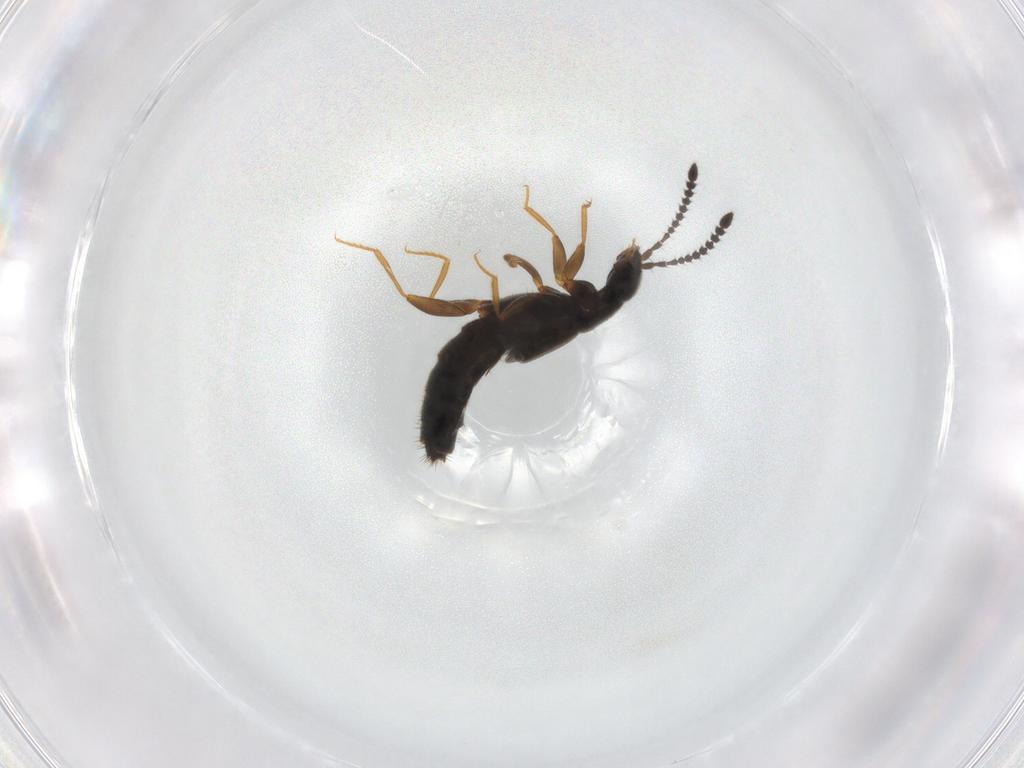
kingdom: Animalia
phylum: Arthropoda
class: Insecta
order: Coleoptera
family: Staphylinidae
